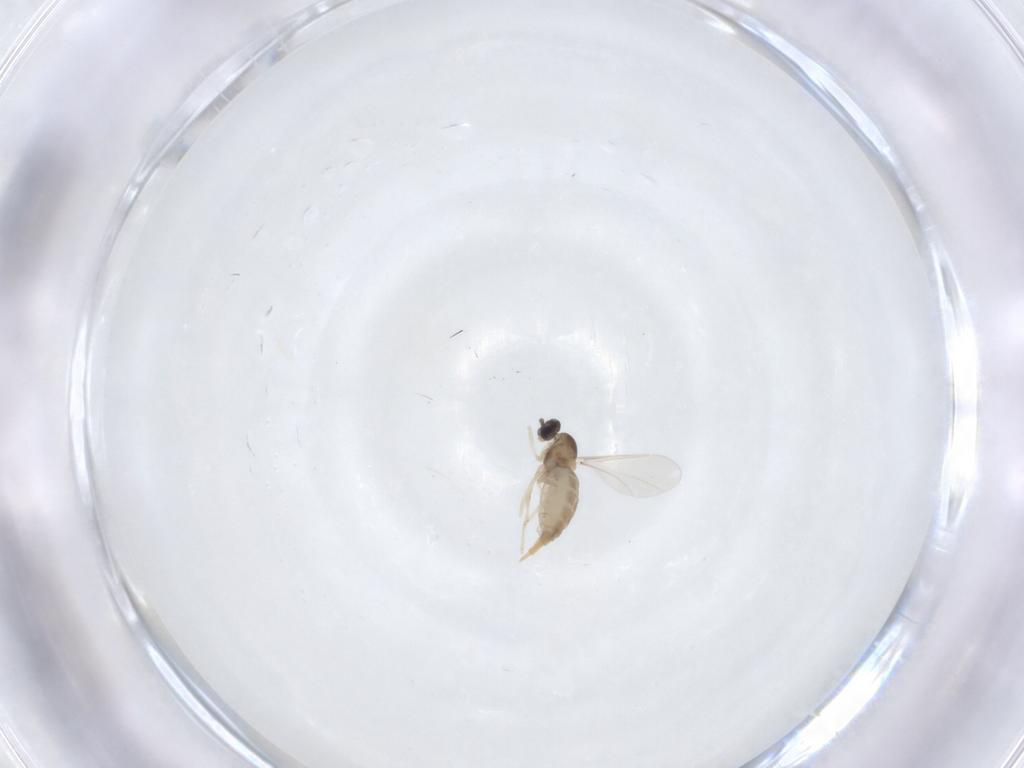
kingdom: Animalia
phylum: Arthropoda
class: Insecta
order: Diptera
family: Cecidomyiidae
